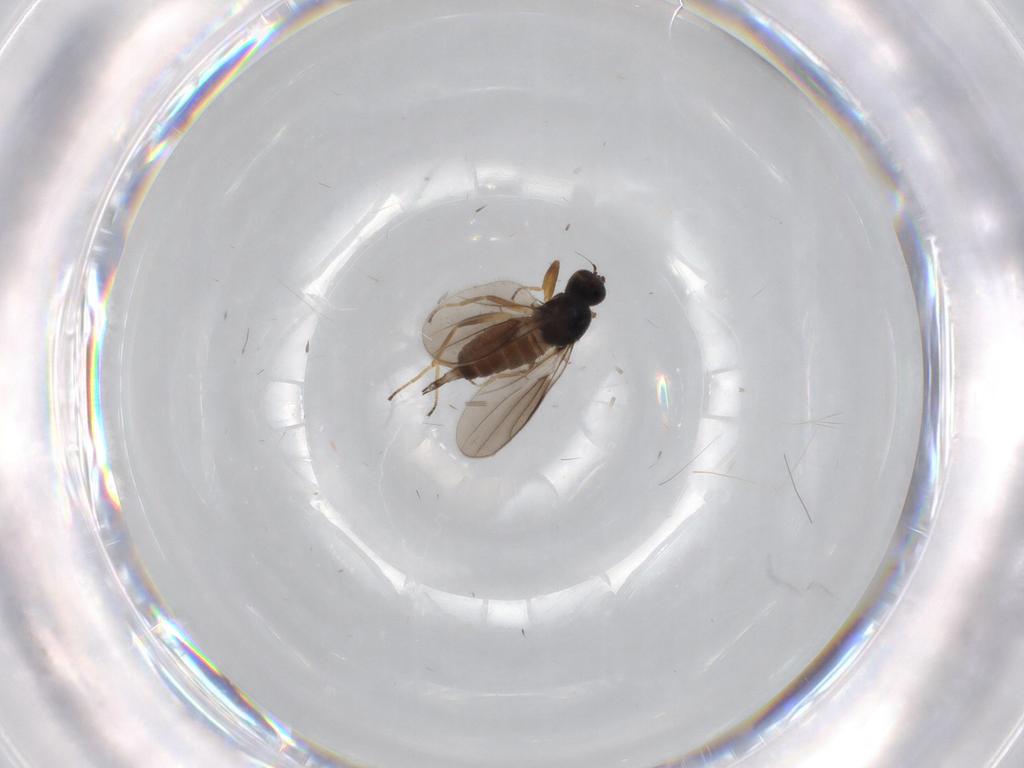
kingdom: Animalia
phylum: Arthropoda
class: Insecta
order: Diptera
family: Hybotidae
